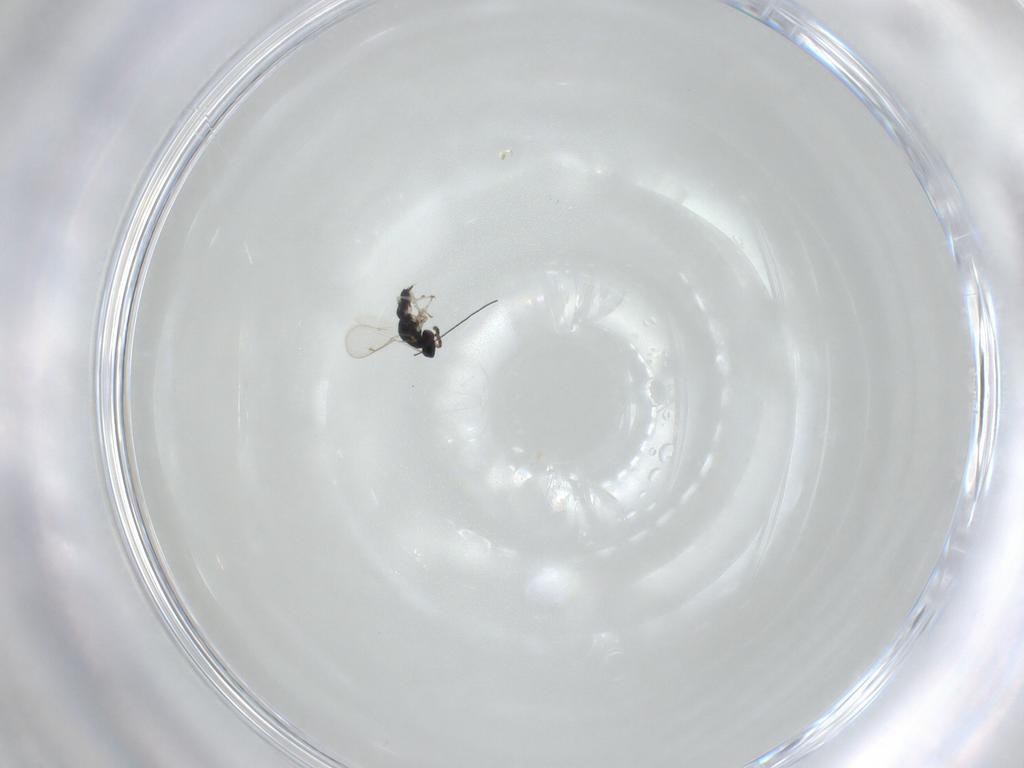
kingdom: Animalia
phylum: Arthropoda
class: Insecta
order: Hymenoptera
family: Eulophidae
